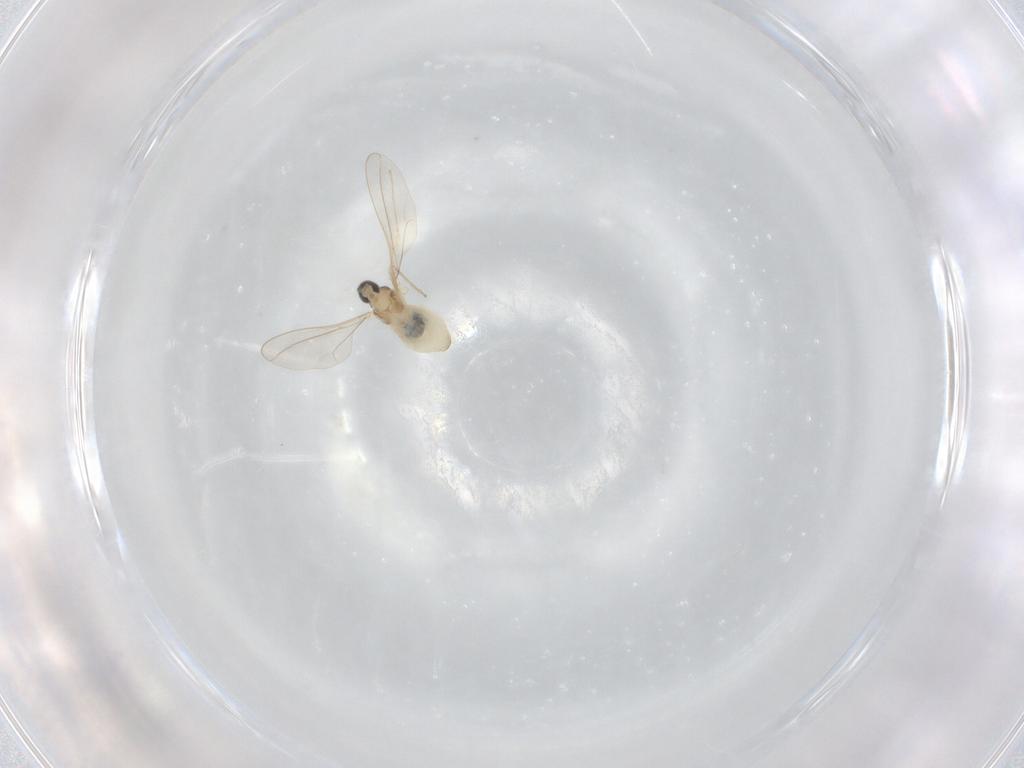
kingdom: Animalia
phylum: Arthropoda
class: Insecta
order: Diptera
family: Cecidomyiidae
